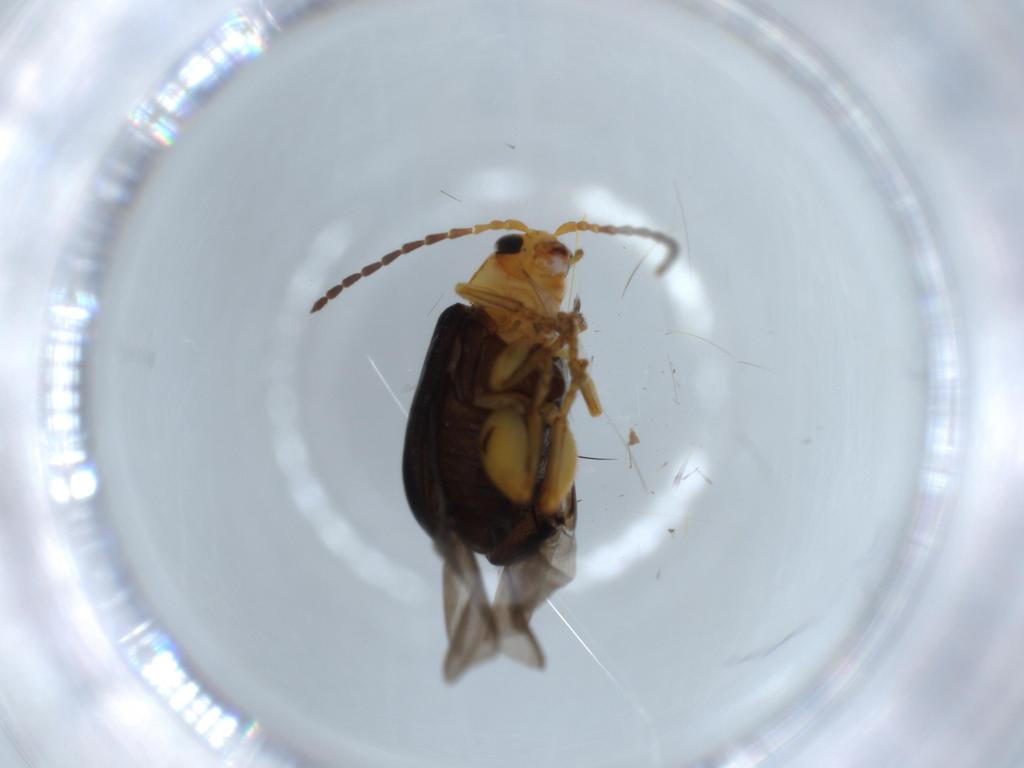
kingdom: Animalia
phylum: Arthropoda
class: Insecta
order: Coleoptera
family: Chrysomelidae
